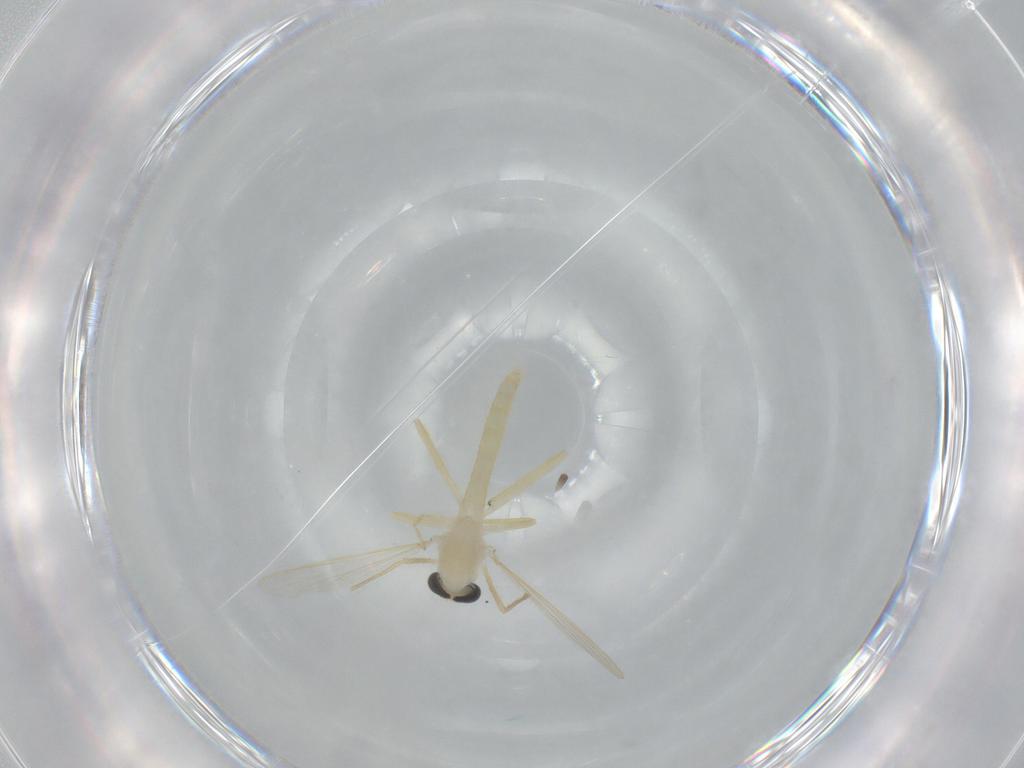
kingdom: Animalia
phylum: Arthropoda
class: Insecta
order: Diptera
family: Chironomidae
